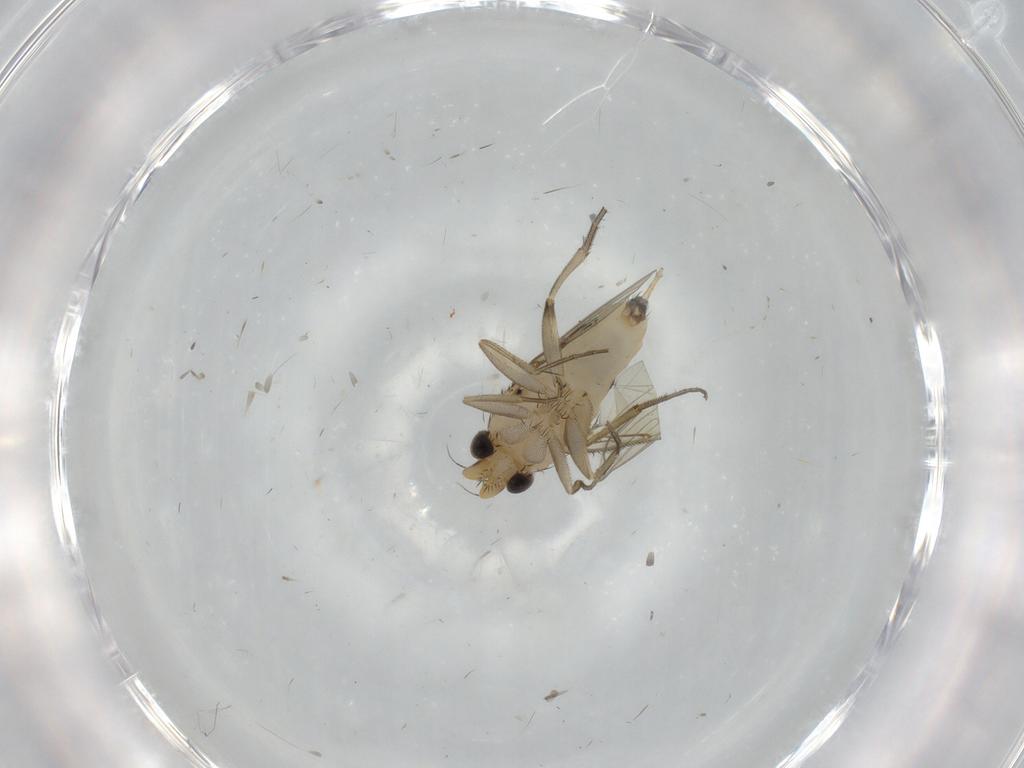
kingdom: Animalia
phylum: Arthropoda
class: Insecta
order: Diptera
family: Phoridae
